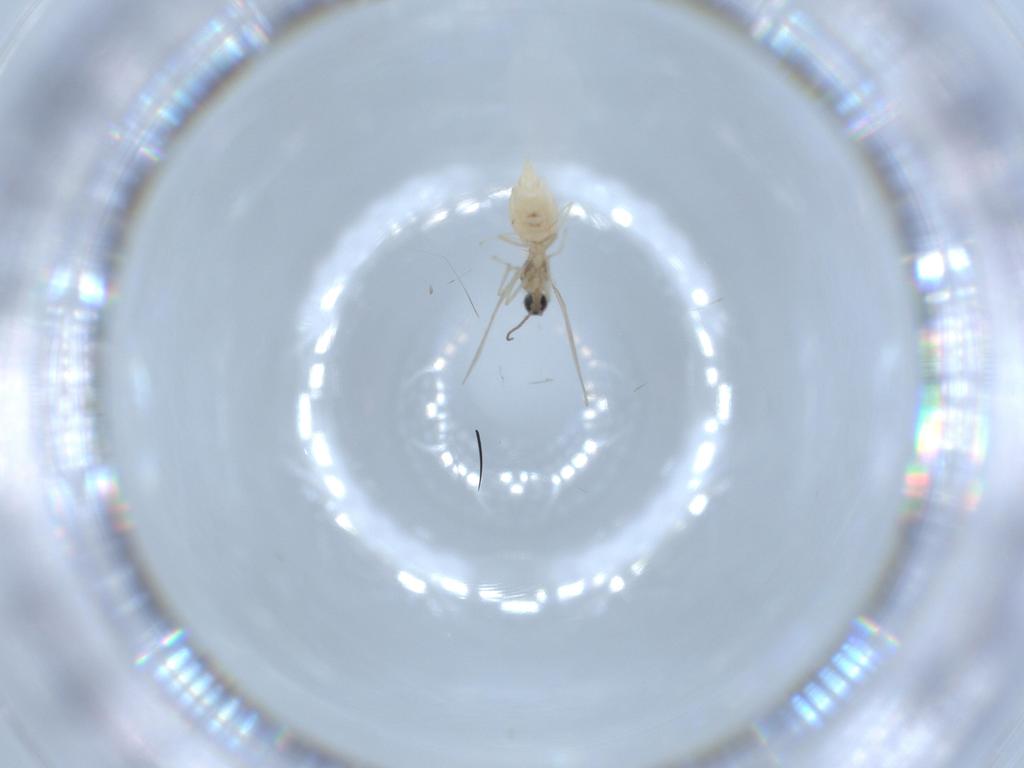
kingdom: Animalia
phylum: Arthropoda
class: Insecta
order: Diptera
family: Cecidomyiidae
